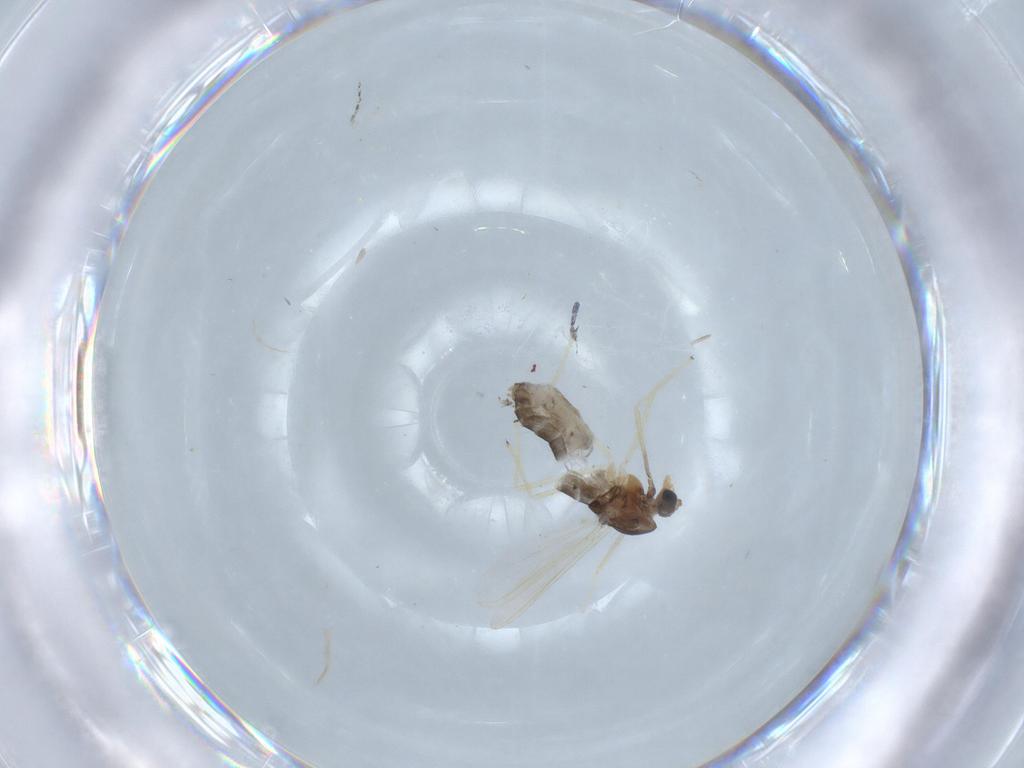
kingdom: Animalia
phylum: Arthropoda
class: Insecta
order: Diptera
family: Chironomidae
